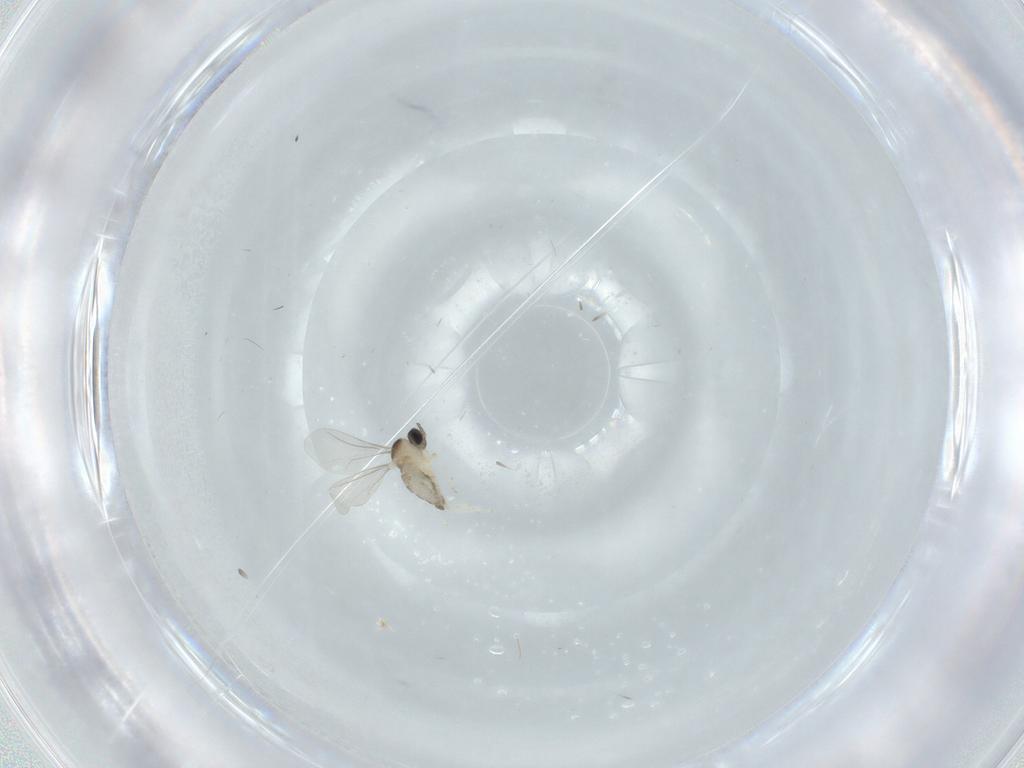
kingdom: Animalia
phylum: Arthropoda
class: Insecta
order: Diptera
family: Cecidomyiidae
